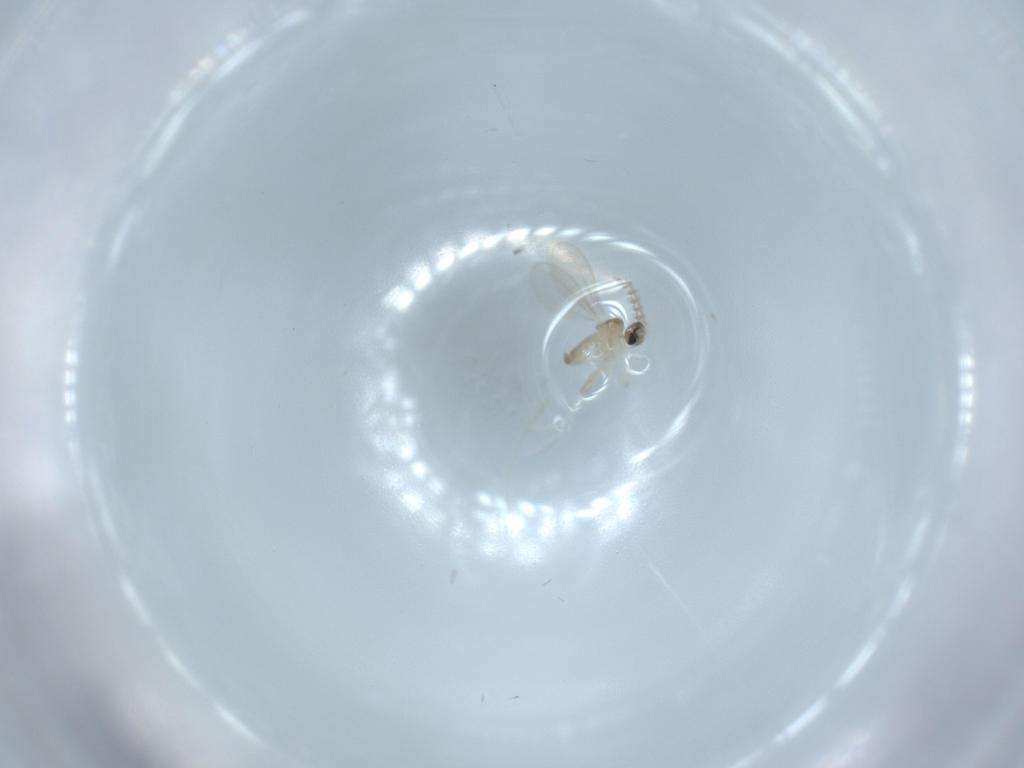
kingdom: Animalia
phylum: Arthropoda
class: Insecta
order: Diptera
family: Cecidomyiidae
